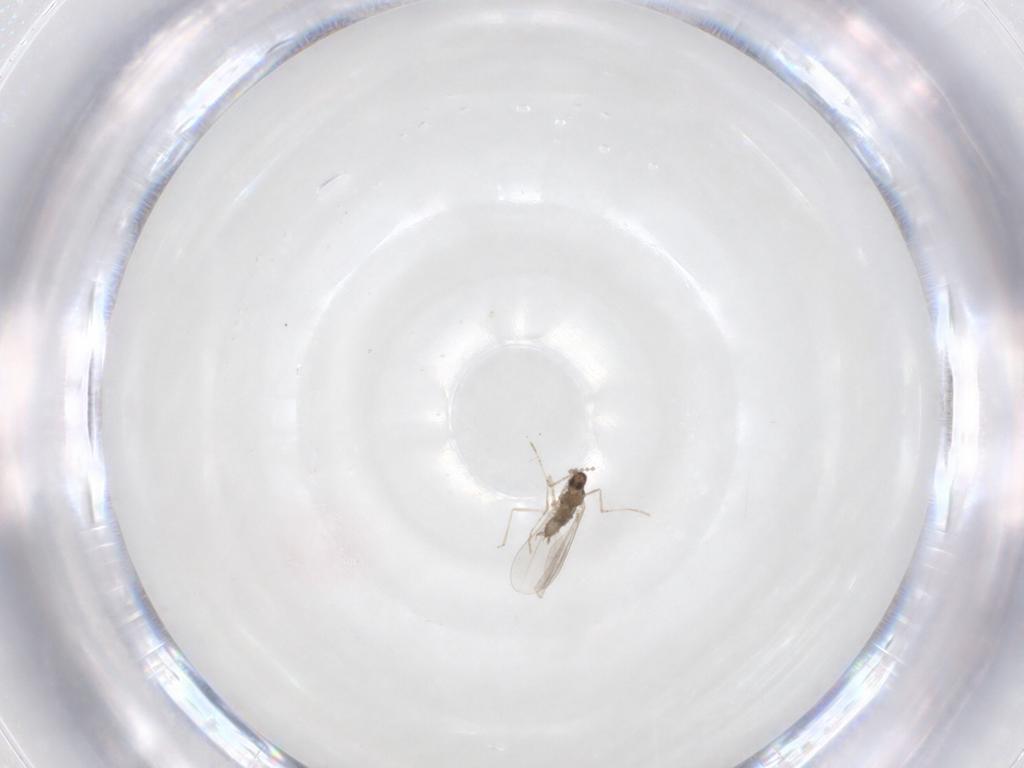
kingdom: Animalia
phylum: Arthropoda
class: Insecta
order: Diptera
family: Cecidomyiidae
